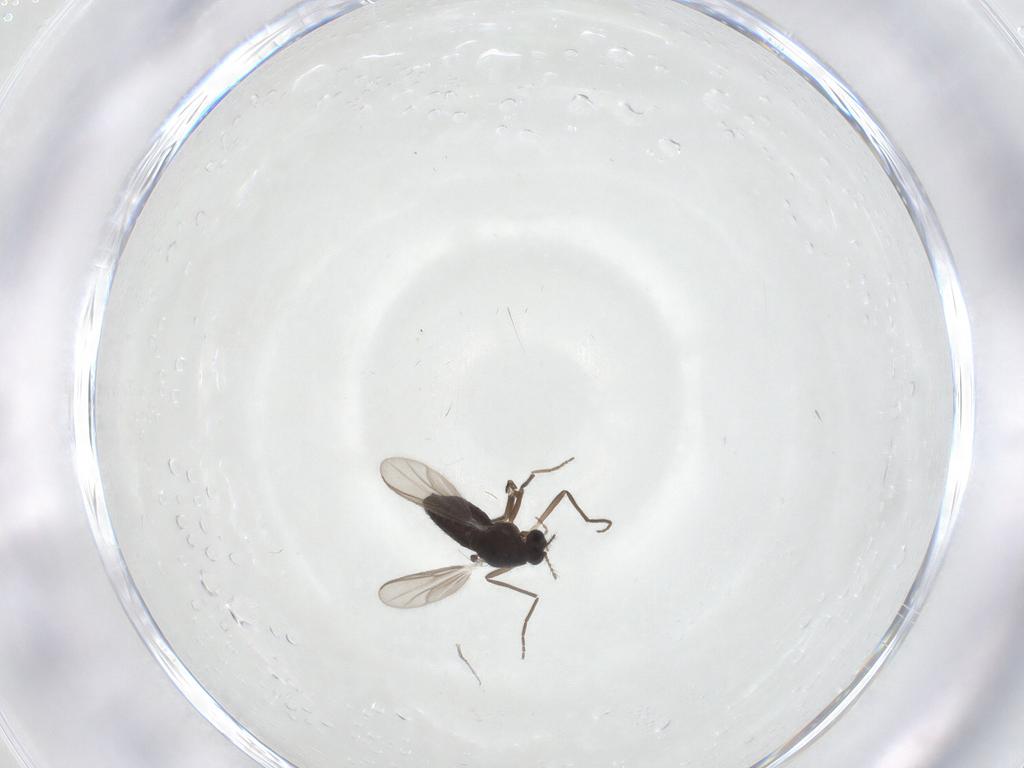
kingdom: Animalia
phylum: Arthropoda
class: Insecta
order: Diptera
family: Chironomidae
